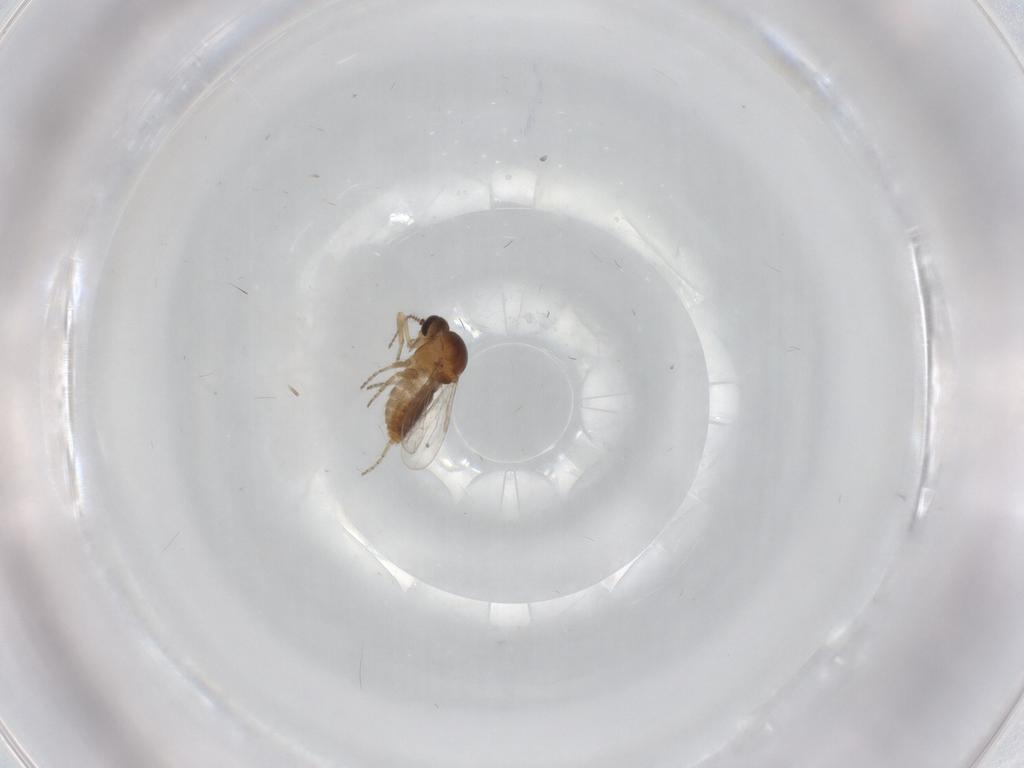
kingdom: Animalia
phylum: Arthropoda
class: Insecta
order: Diptera
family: Ceratopogonidae
